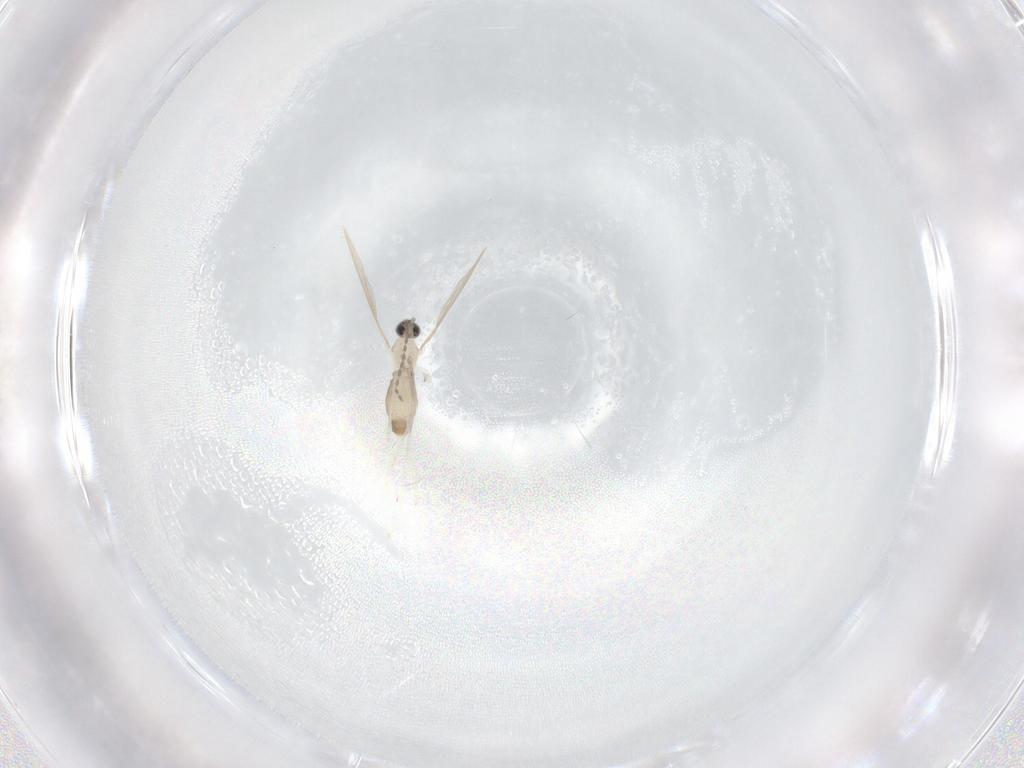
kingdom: Animalia
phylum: Arthropoda
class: Insecta
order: Diptera
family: Cecidomyiidae
